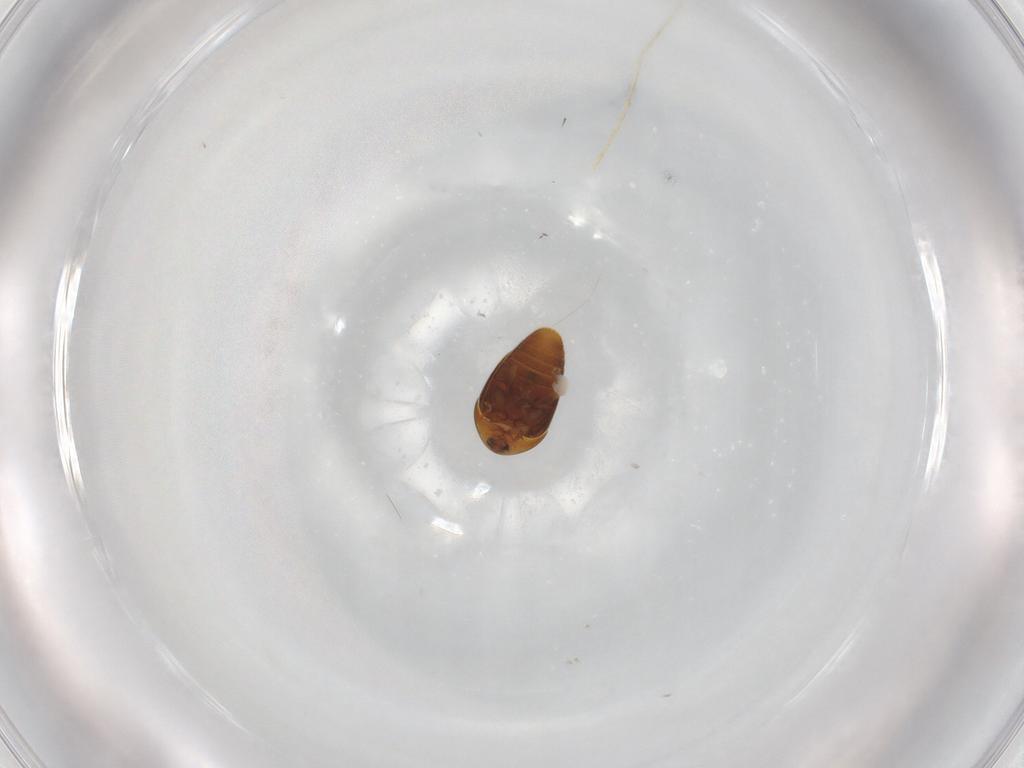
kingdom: Animalia
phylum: Arthropoda
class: Insecta
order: Coleoptera
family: Corylophidae
